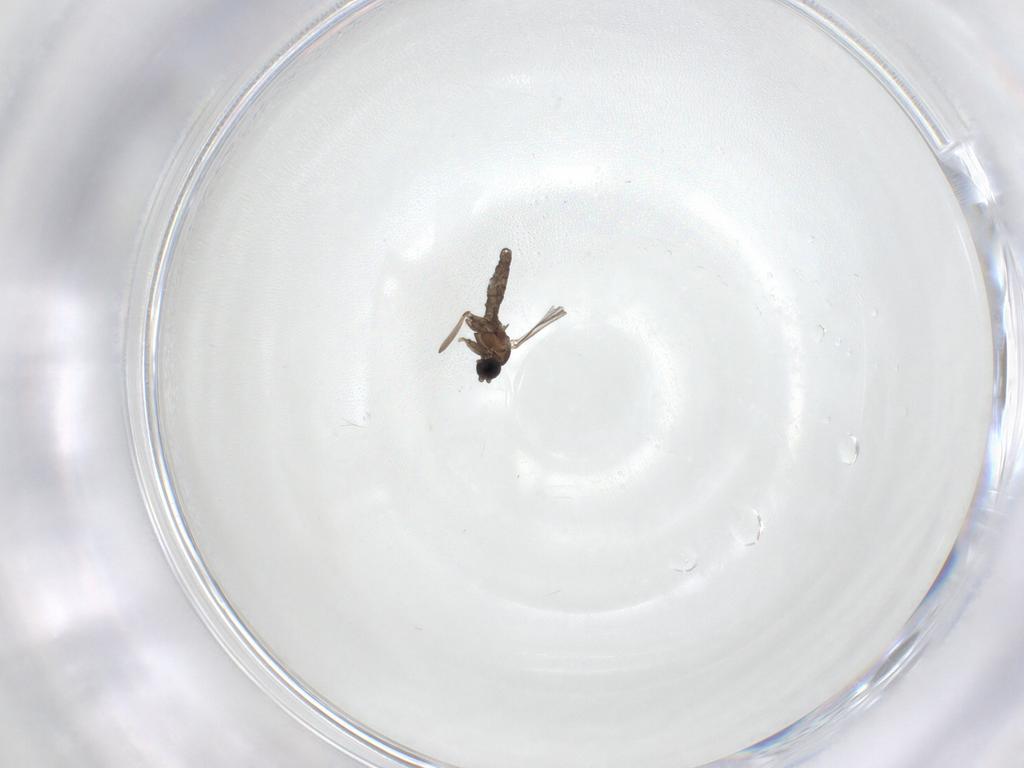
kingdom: Animalia
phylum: Arthropoda
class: Insecta
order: Diptera
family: Sciaridae
